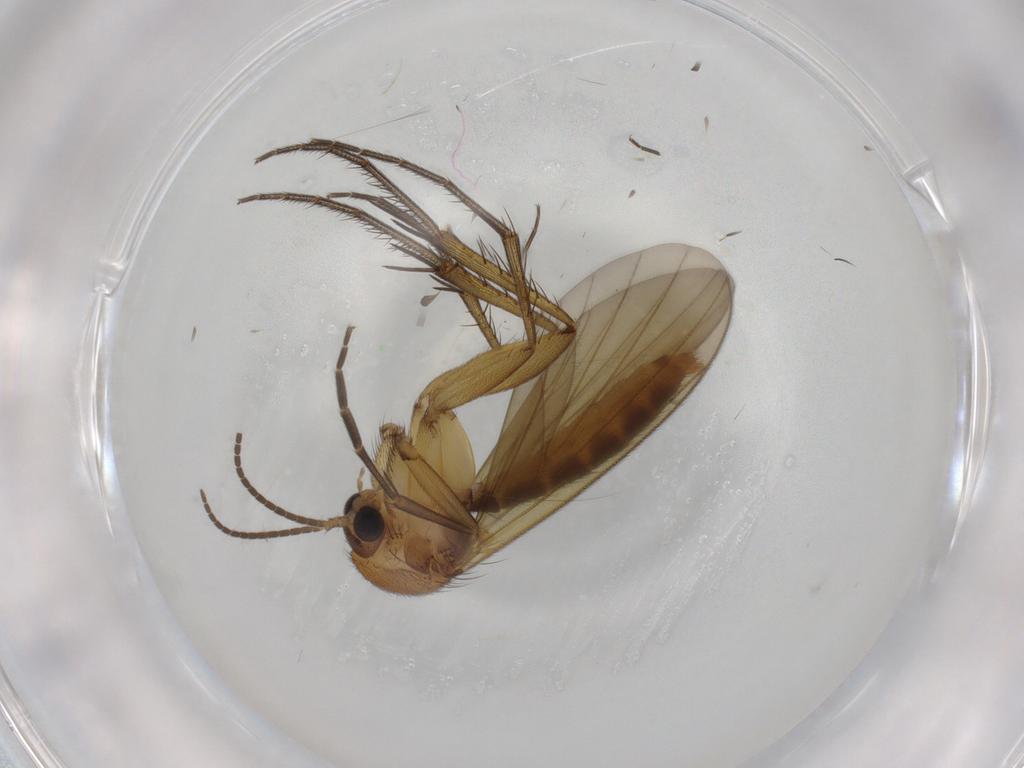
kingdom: Animalia
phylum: Arthropoda
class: Insecta
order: Diptera
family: Mycetophilidae
